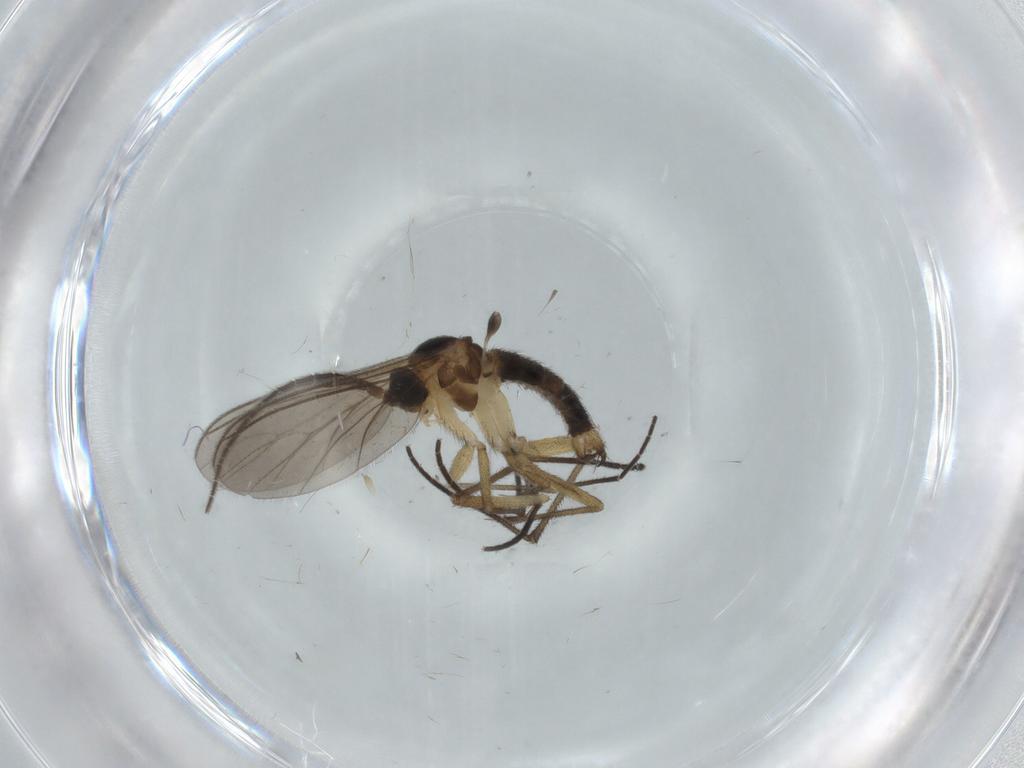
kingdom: Animalia
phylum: Arthropoda
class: Insecta
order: Diptera
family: Sciaridae
